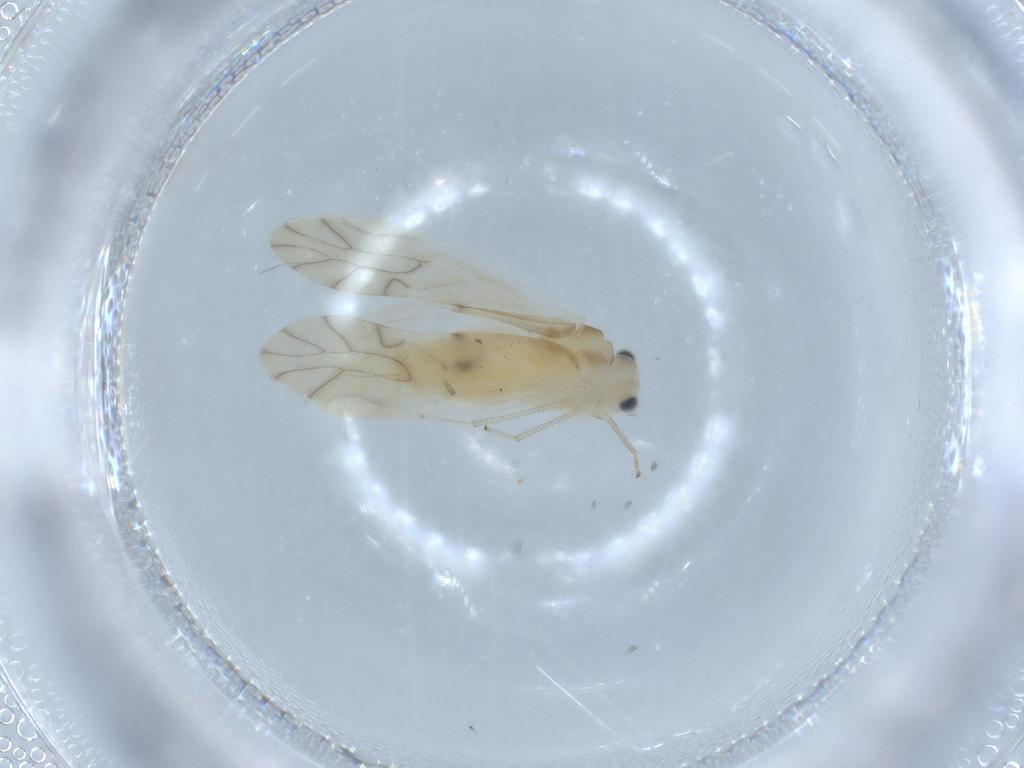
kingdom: Animalia
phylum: Arthropoda
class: Insecta
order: Psocodea
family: Caeciliusidae
